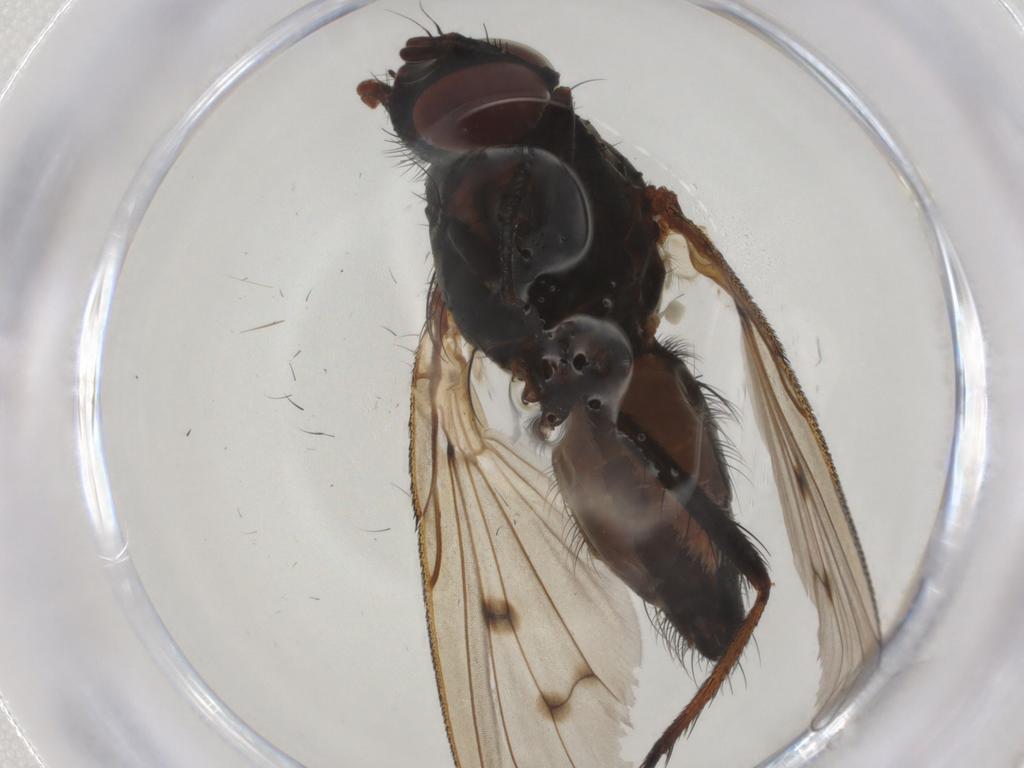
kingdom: Animalia
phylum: Arthropoda
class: Insecta
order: Diptera
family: Anthomyiidae
